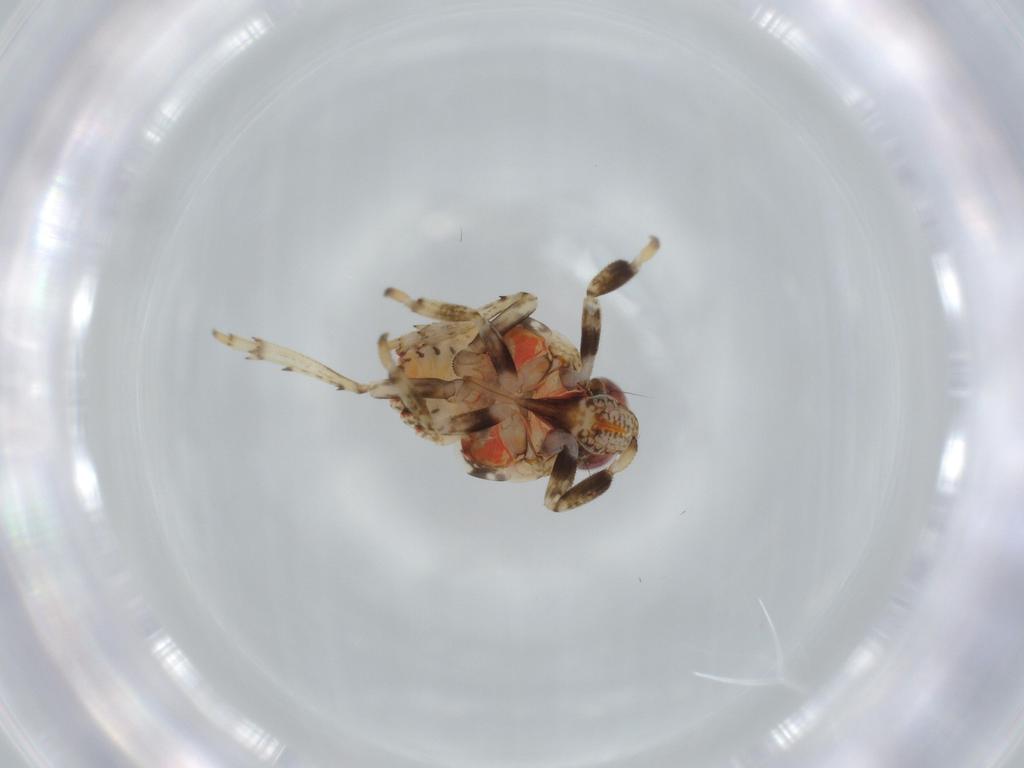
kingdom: Animalia
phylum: Arthropoda
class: Insecta
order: Hemiptera
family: Issidae
